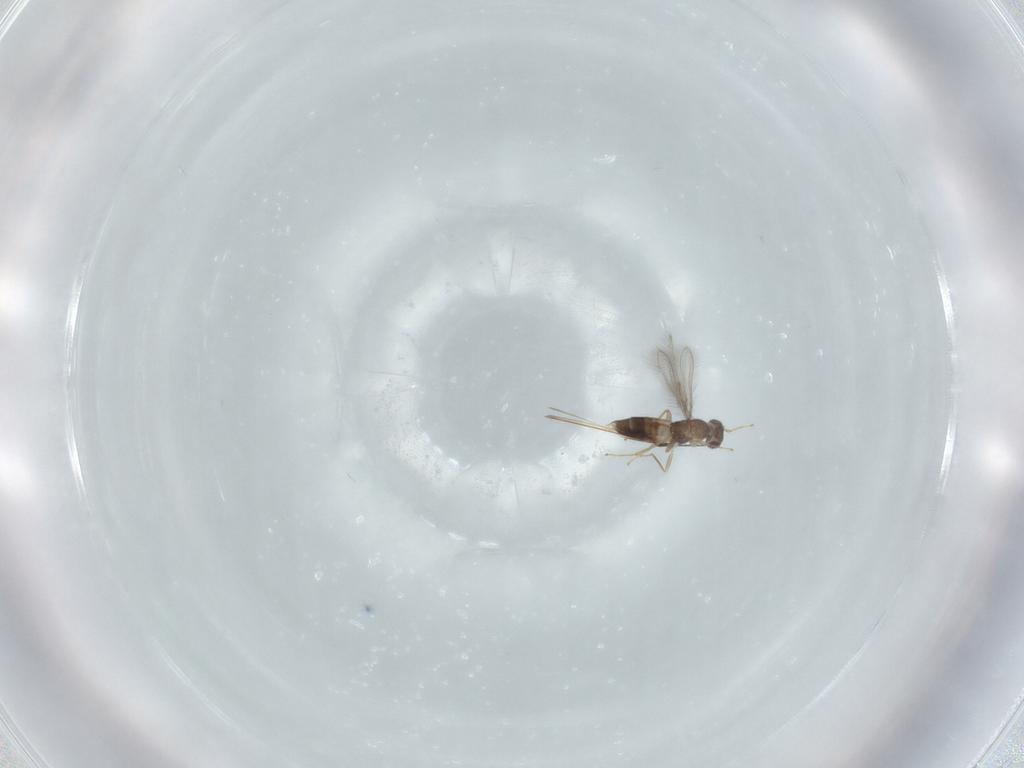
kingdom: Animalia
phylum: Arthropoda
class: Insecta
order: Hymenoptera
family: Mymaridae
